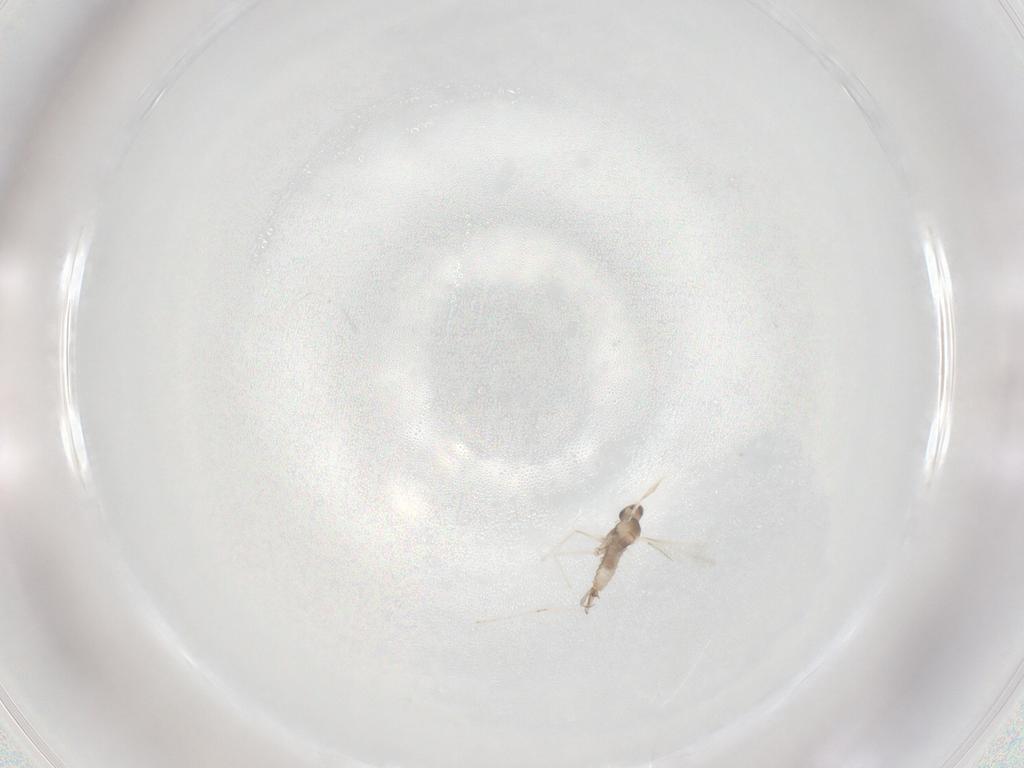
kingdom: Animalia
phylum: Arthropoda
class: Insecta
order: Diptera
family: Cecidomyiidae
